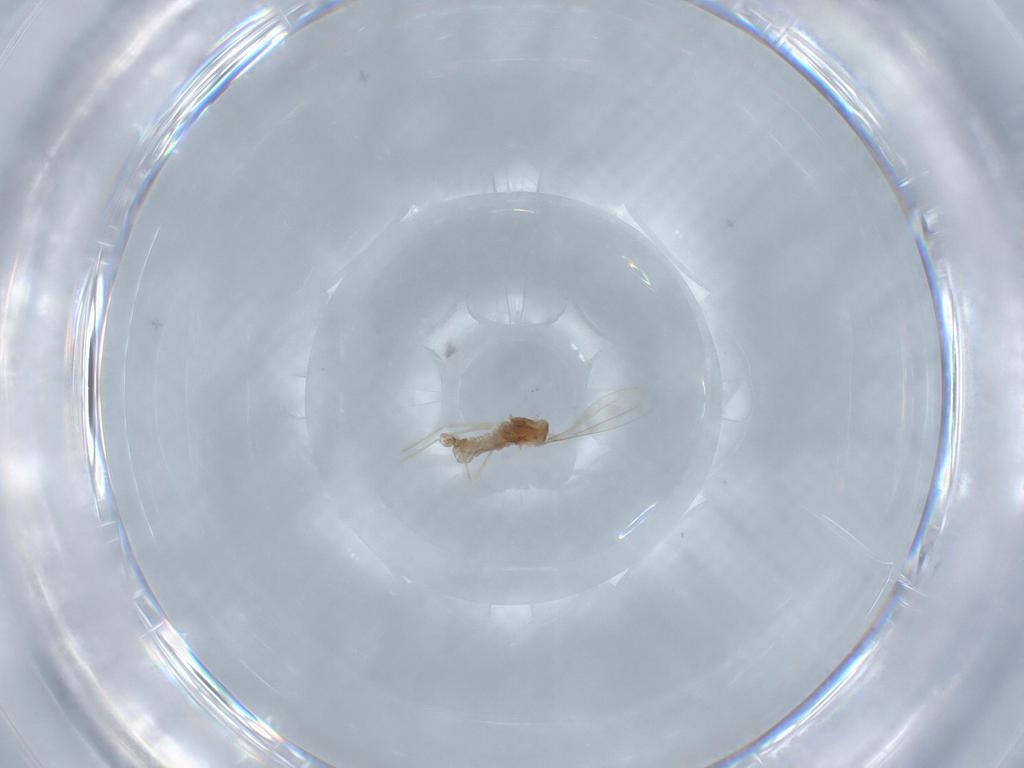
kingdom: Animalia
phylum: Arthropoda
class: Insecta
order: Diptera
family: Cecidomyiidae
